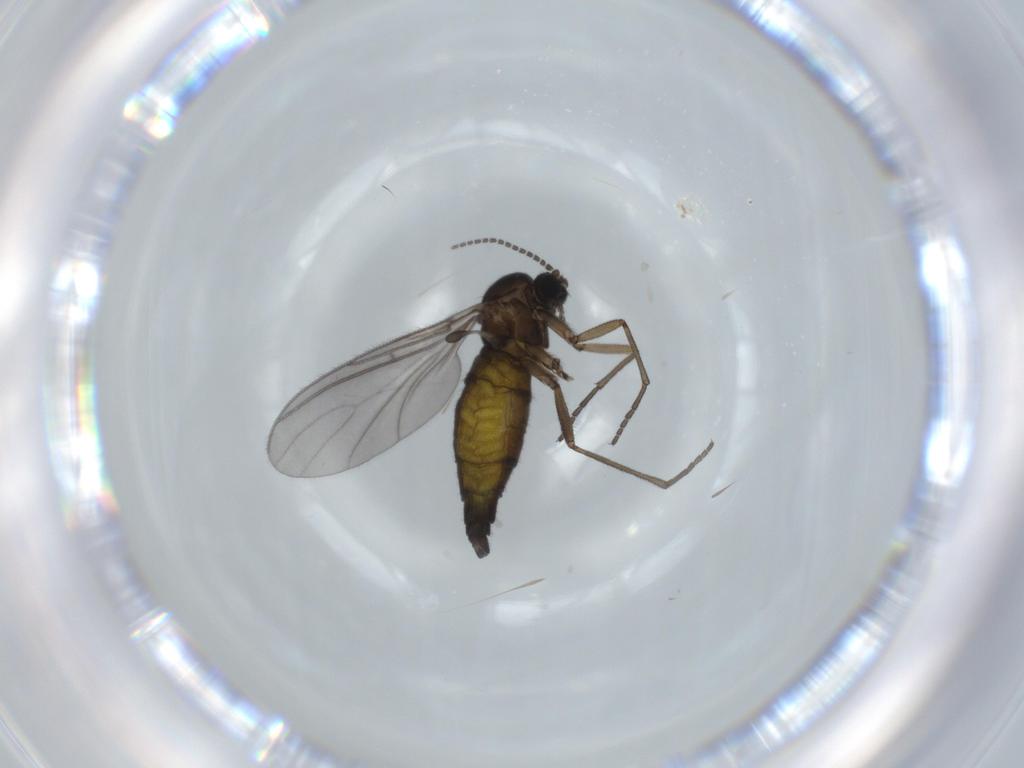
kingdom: Animalia
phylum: Arthropoda
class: Insecta
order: Diptera
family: Sciaridae
